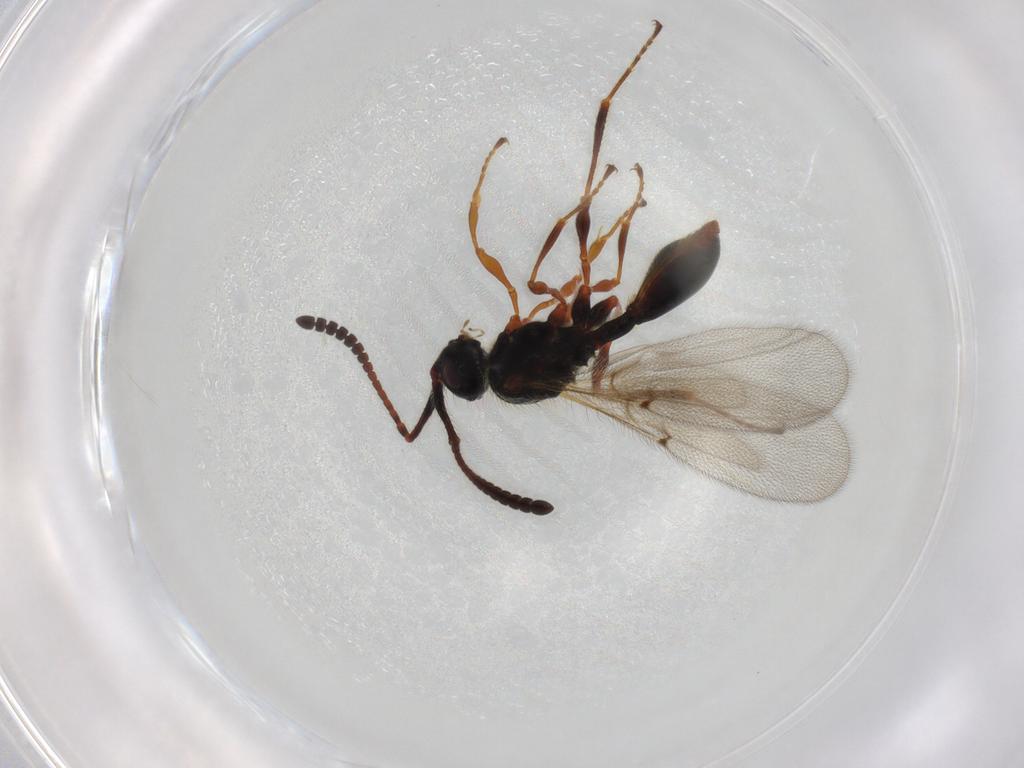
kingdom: Animalia
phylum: Arthropoda
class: Insecta
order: Hymenoptera
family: Diapriidae
